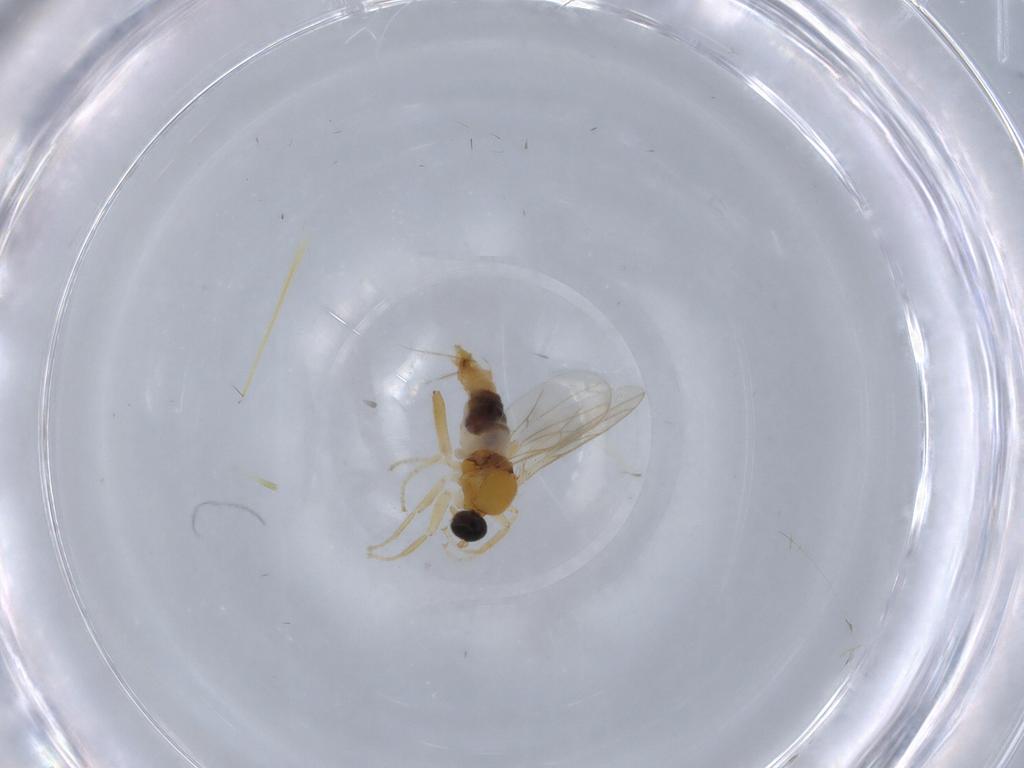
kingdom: Animalia
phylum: Arthropoda
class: Insecta
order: Diptera
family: Hybotidae
